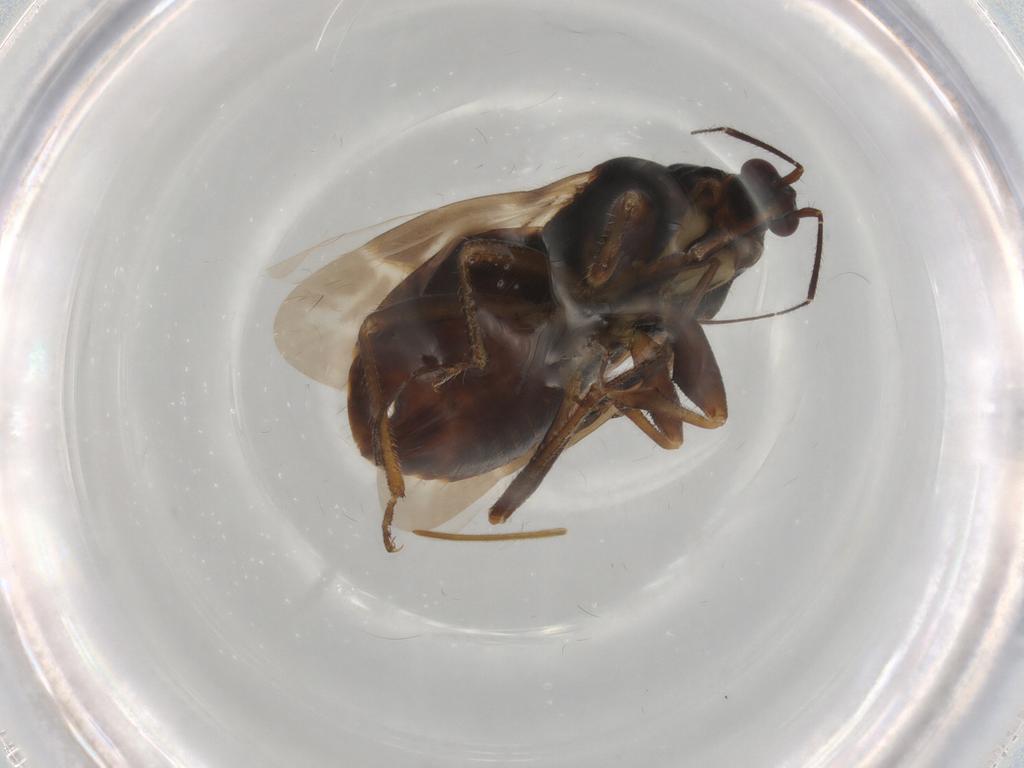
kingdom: Animalia
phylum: Arthropoda
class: Insecta
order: Hemiptera
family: Nabidae
